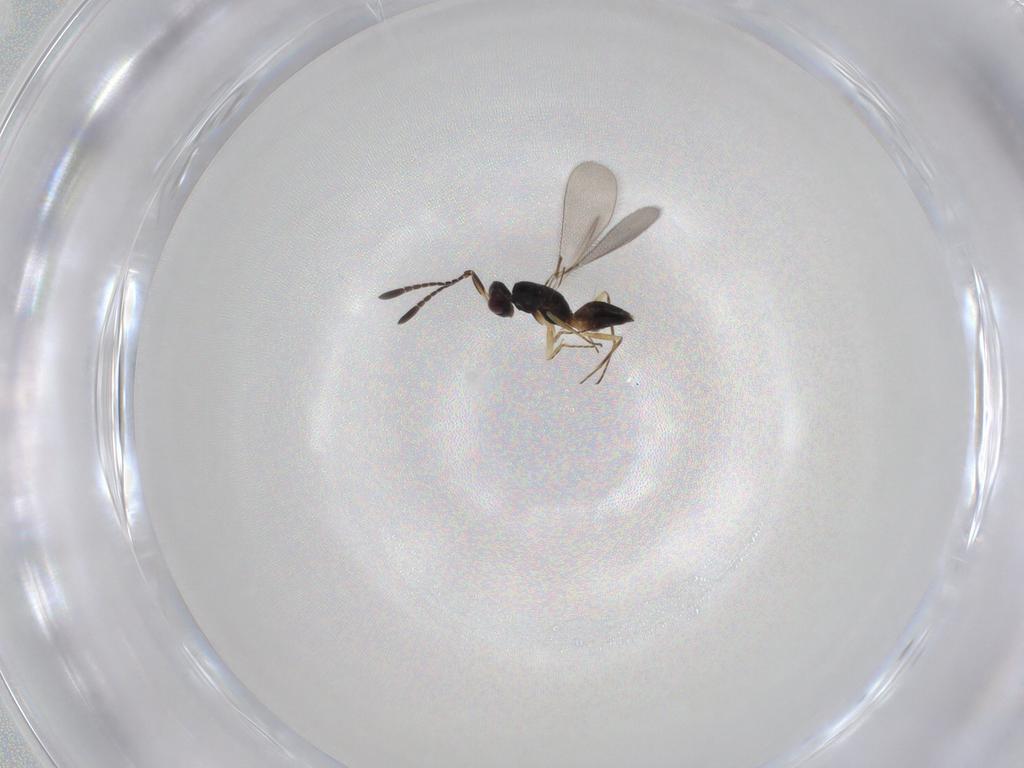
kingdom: Animalia
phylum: Arthropoda
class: Insecta
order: Hymenoptera
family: Mymaridae
